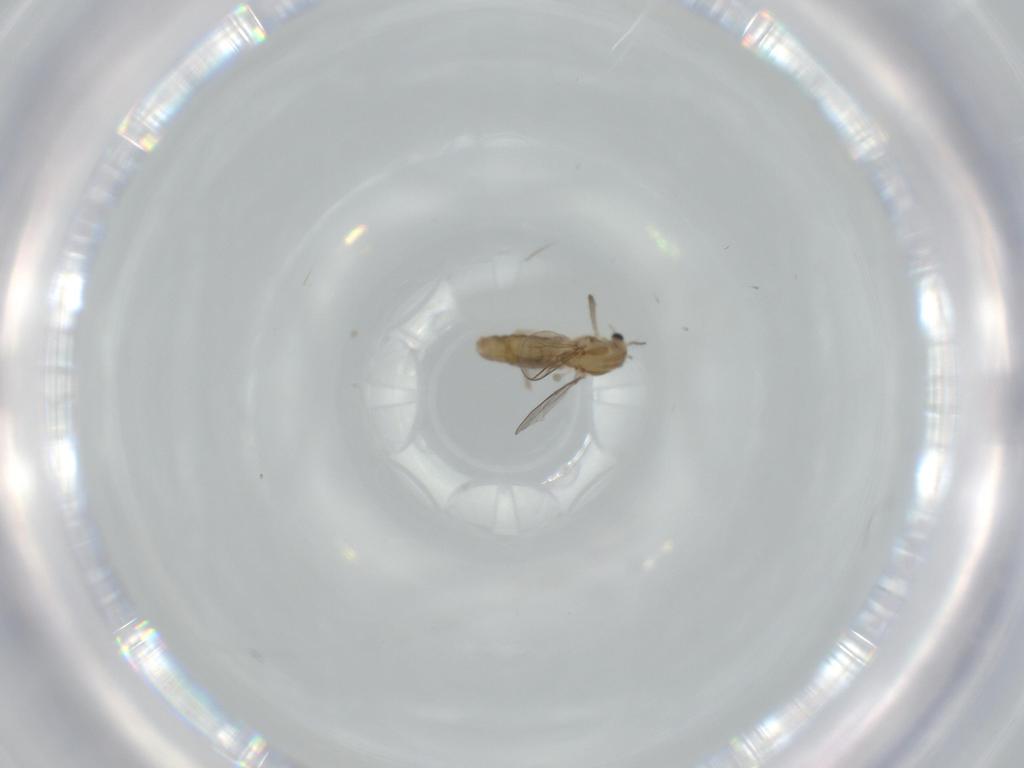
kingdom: Animalia
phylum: Arthropoda
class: Insecta
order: Diptera
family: Chironomidae
